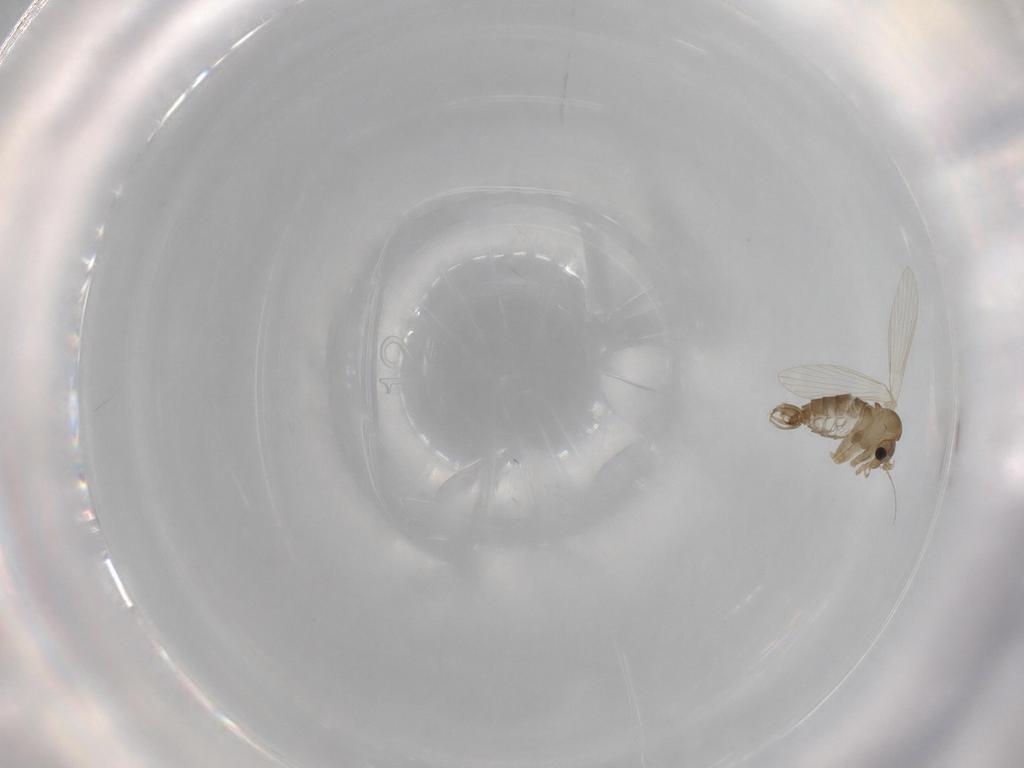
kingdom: Animalia
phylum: Arthropoda
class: Insecta
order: Diptera
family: Psychodidae
